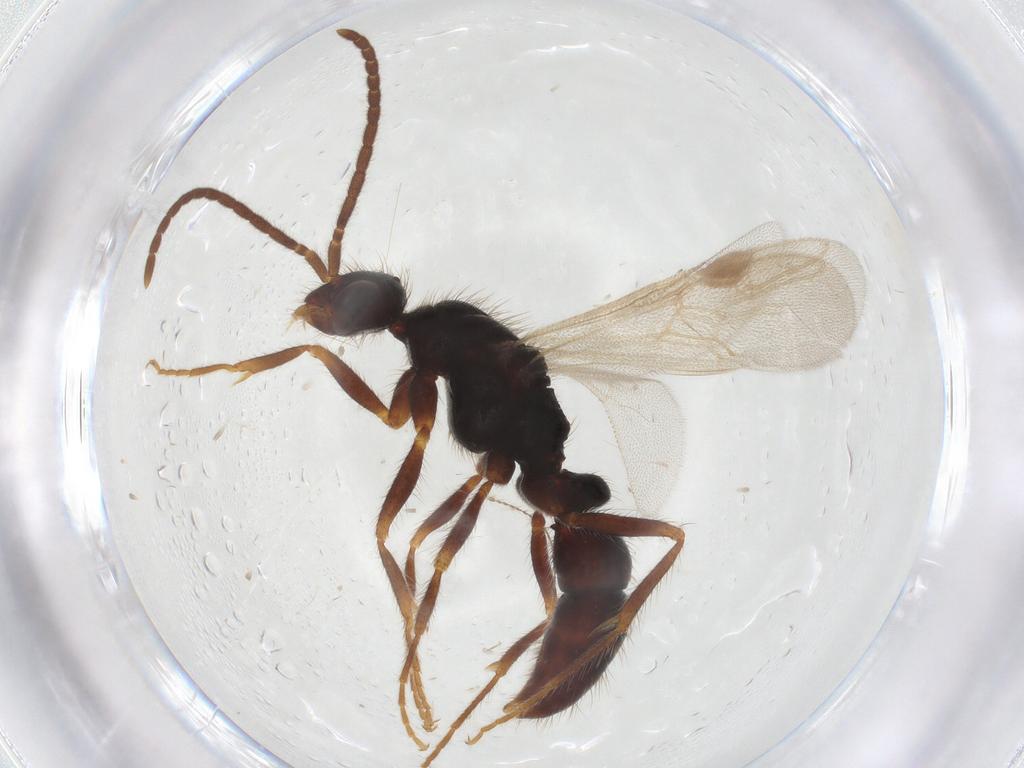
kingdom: Animalia
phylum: Arthropoda
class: Insecta
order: Hymenoptera
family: Formicidae
